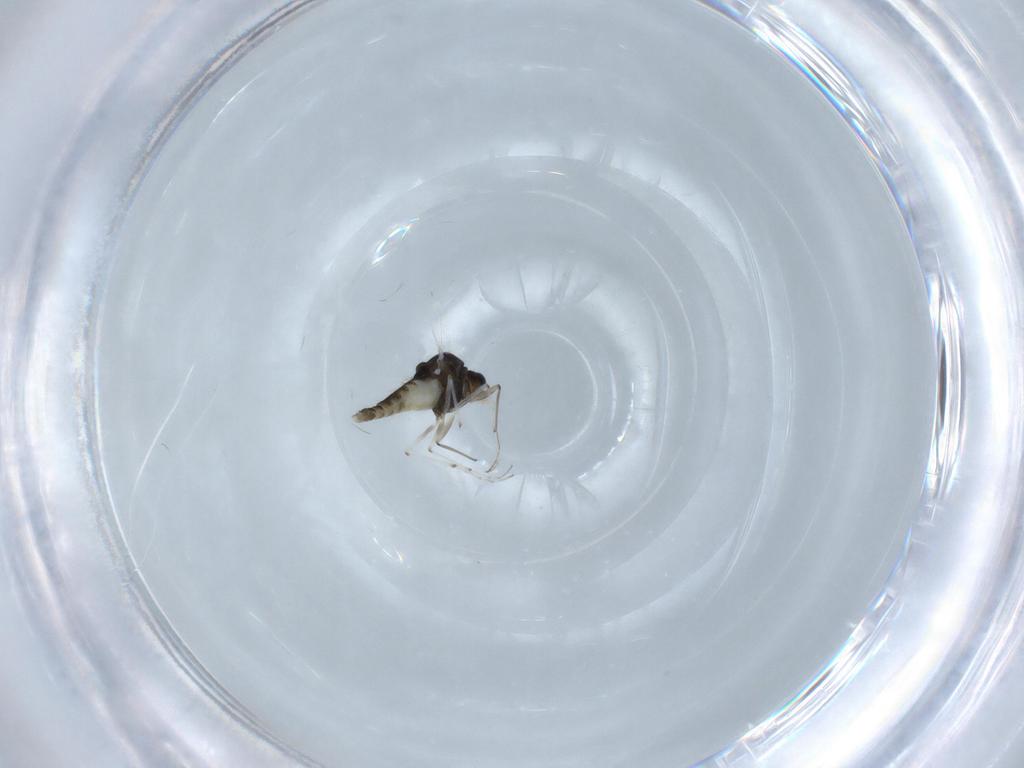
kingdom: Animalia
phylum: Arthropoda
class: Insecta
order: Diptera
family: Chironomidae
